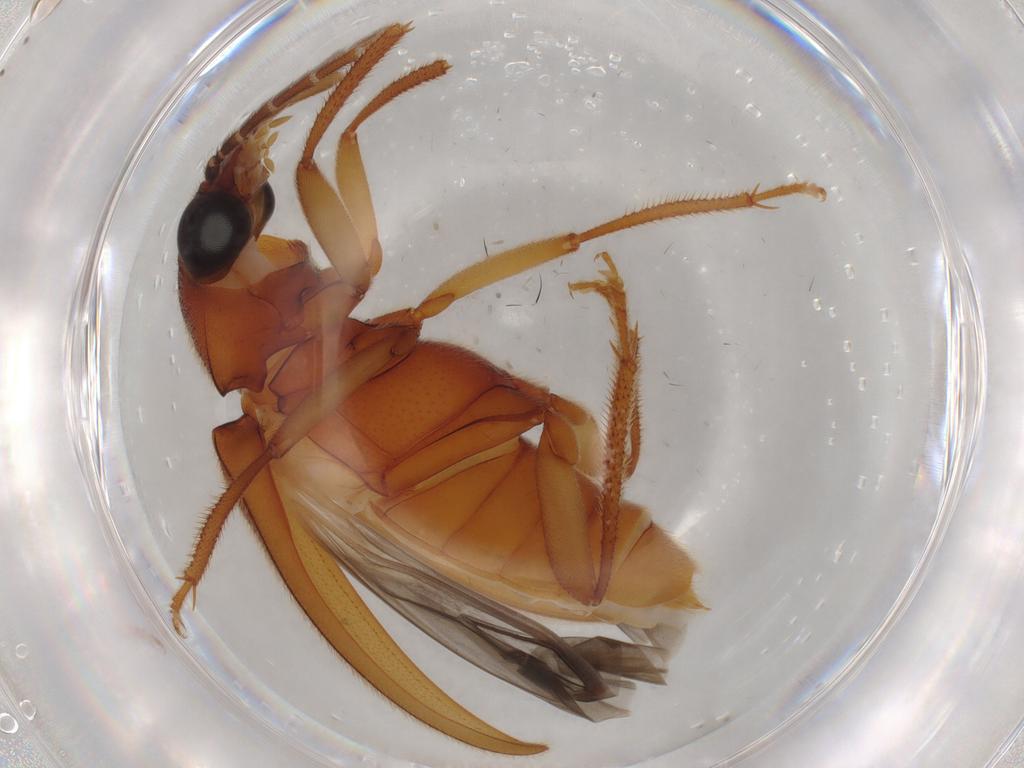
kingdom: Animalia
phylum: Arthropoda
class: Insecta
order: Coleoptera
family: Ptilodactylidae
